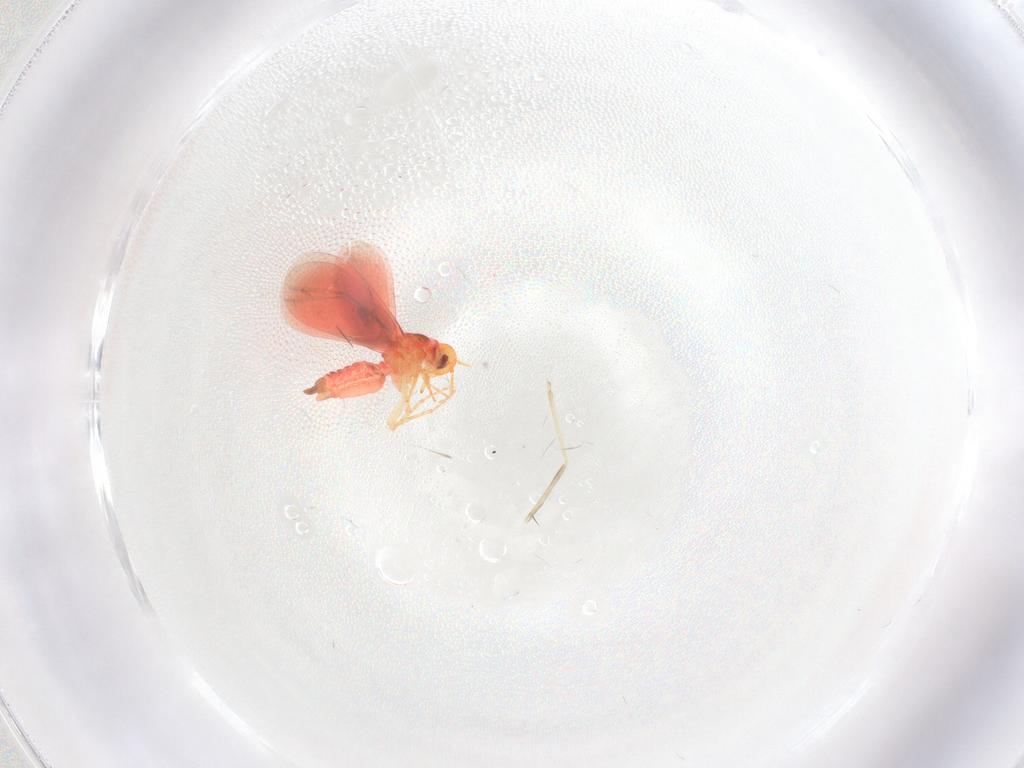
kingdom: Animalia
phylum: Arthropoda
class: Insecta
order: Hemiptera
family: Aleyrodidae
